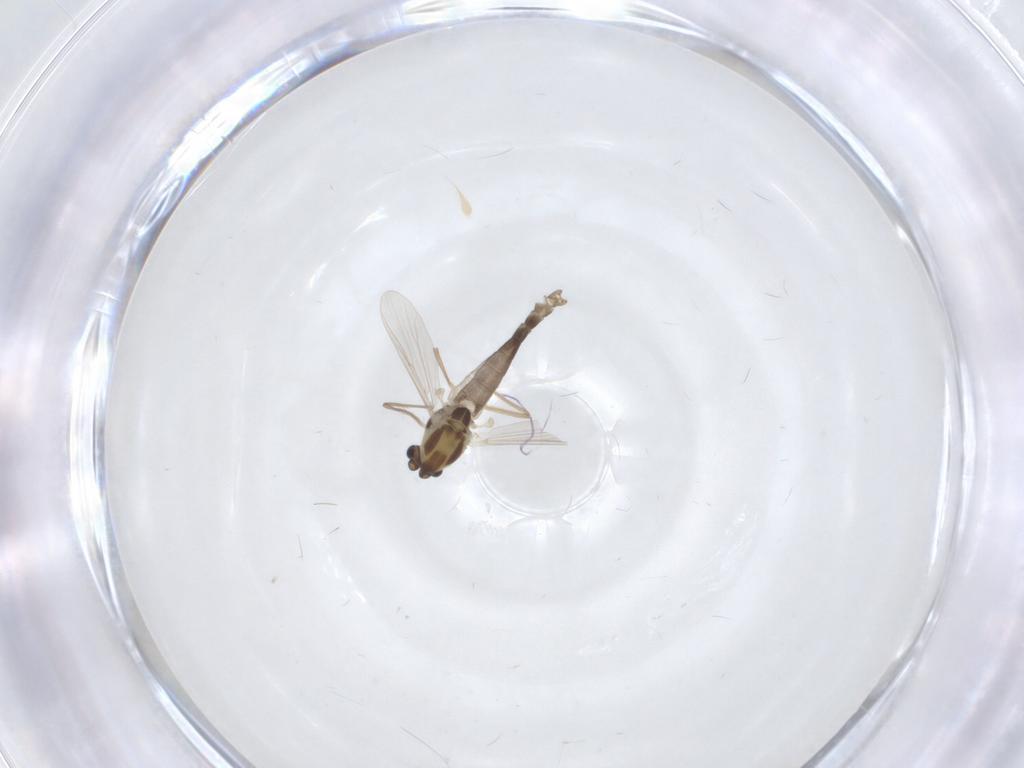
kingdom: Animalia
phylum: Arthropoda
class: Insecta
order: Diptera
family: Chironomidae
